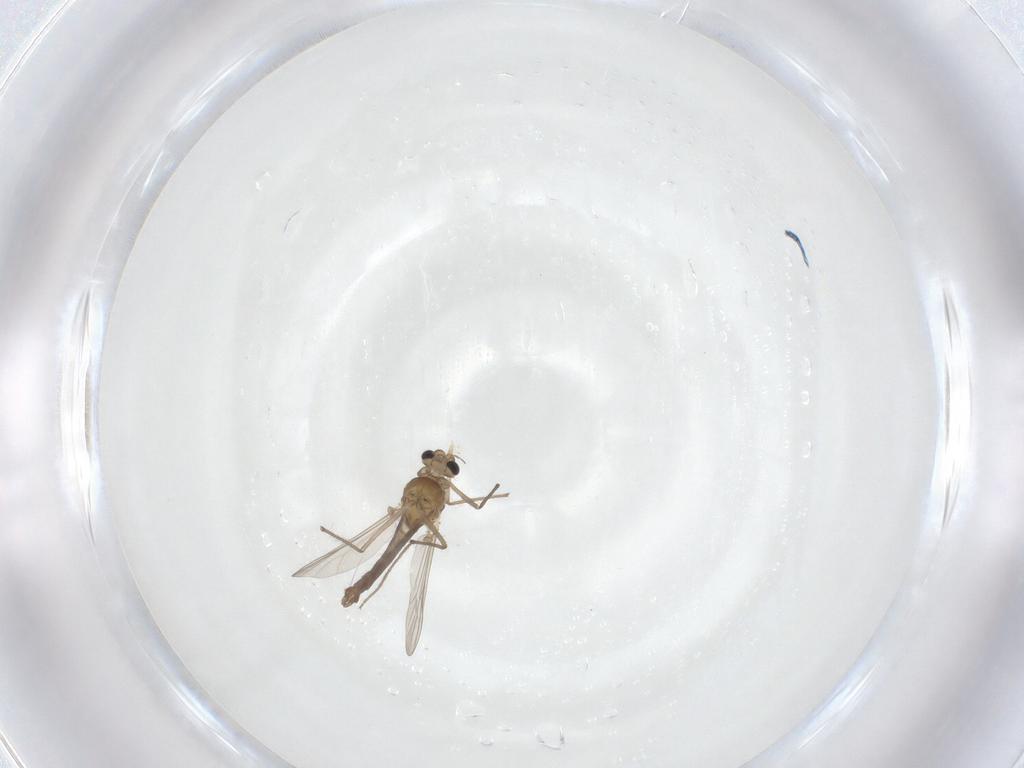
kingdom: Animalia
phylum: Arthropoda
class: Insecta
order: Diptera
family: Chironomidae
